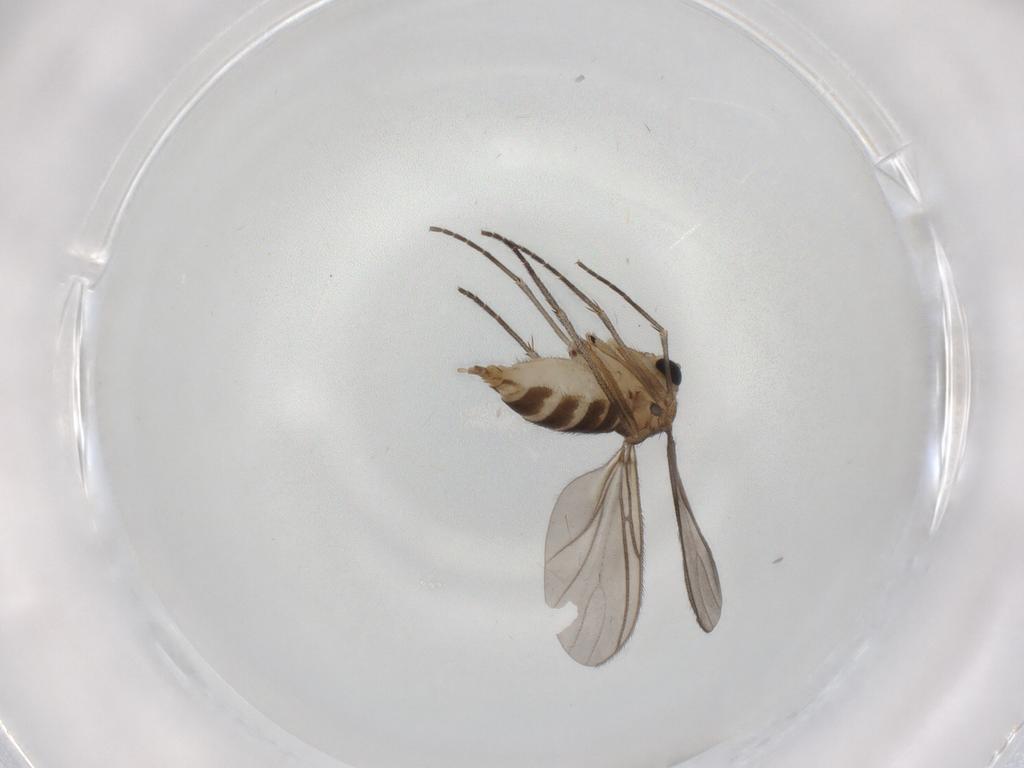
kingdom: Animalia
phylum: Arthropoda
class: Insecta
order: Diptera
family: Sciaridae
